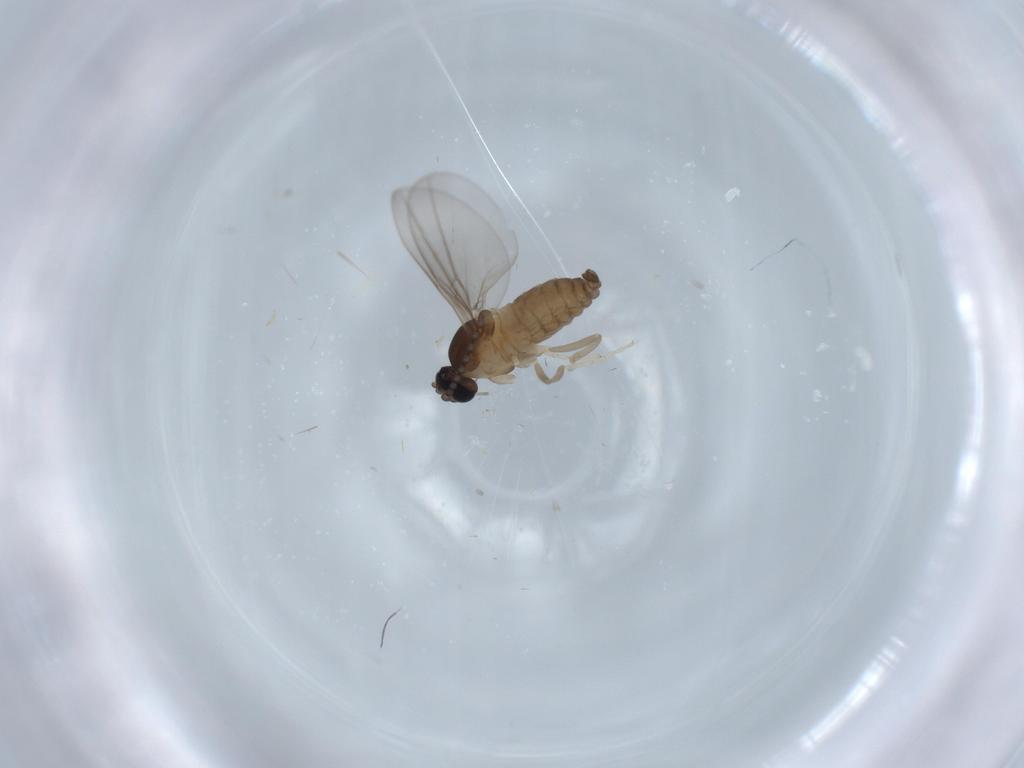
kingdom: Animalia
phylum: Arthropoda
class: Insecta
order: Diptera
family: Cecidomyiidae
